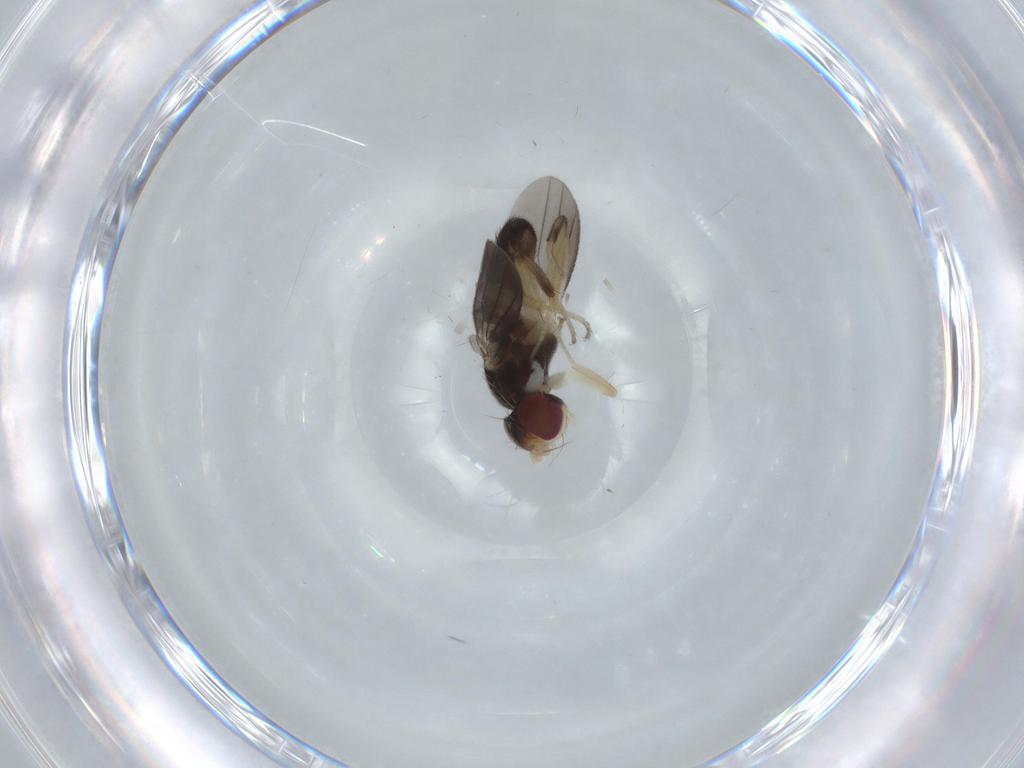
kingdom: Animalia
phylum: Arthropoda
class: Insecta
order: Diptera
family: Clusiidae
